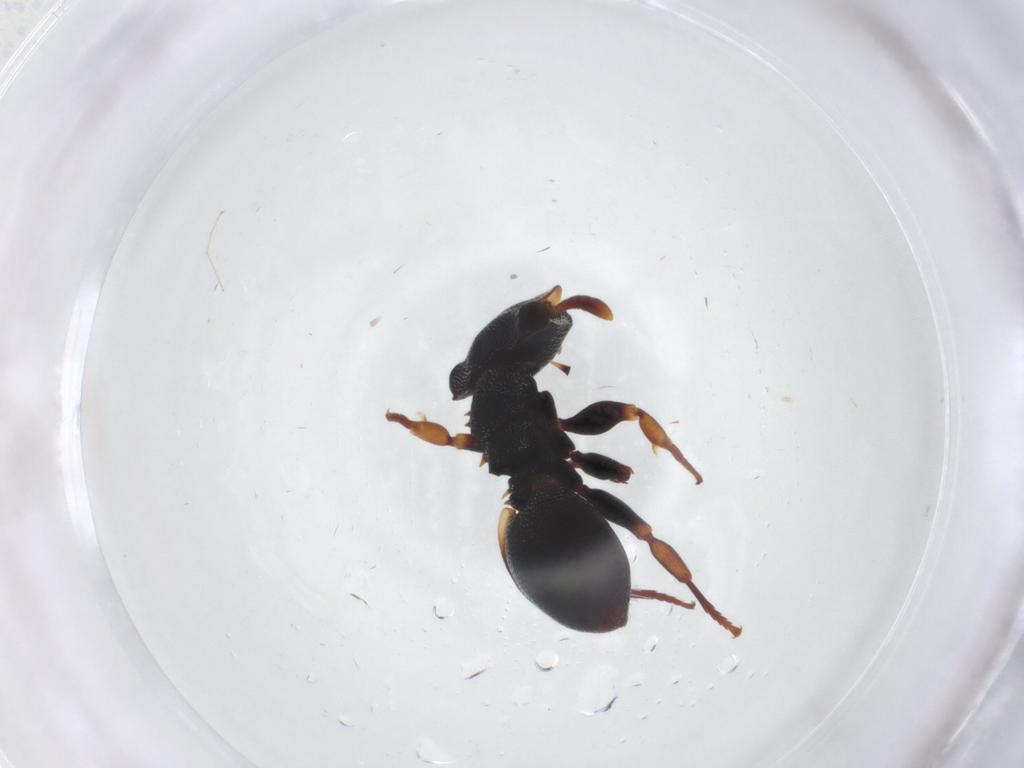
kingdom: Animalia
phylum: Arthropoda
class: Insecta
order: Hymenoptera
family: Formicidae
